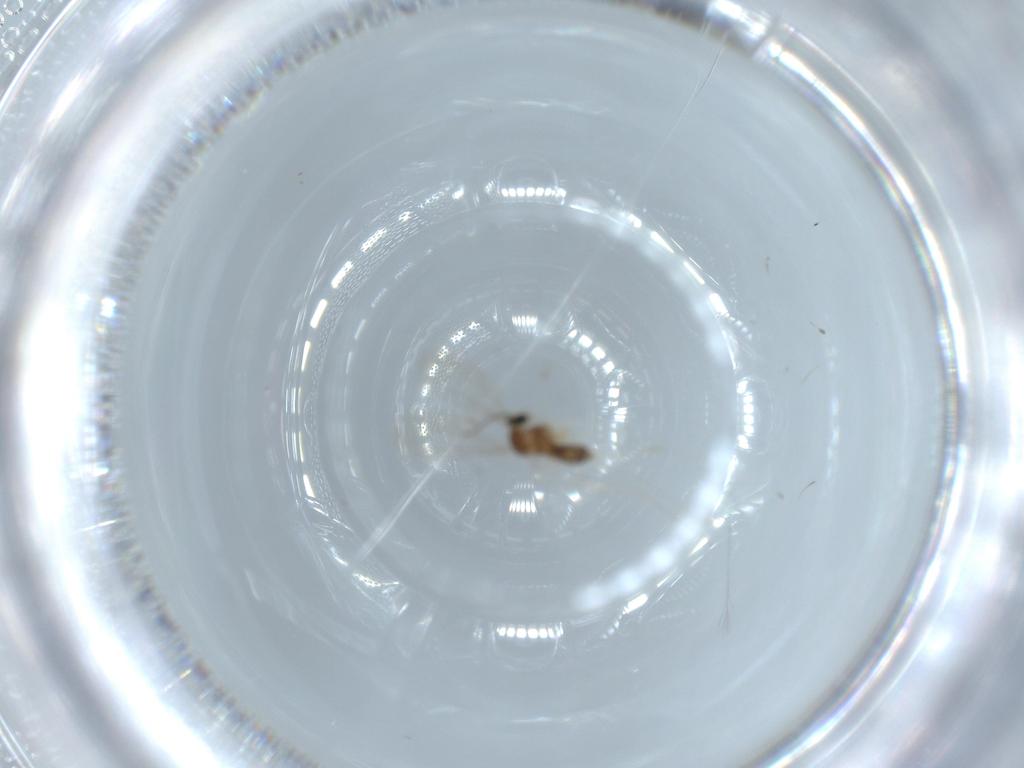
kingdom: Animalia
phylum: Arthropoda
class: Insecta
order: Diptera
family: Cecidomyiidae
